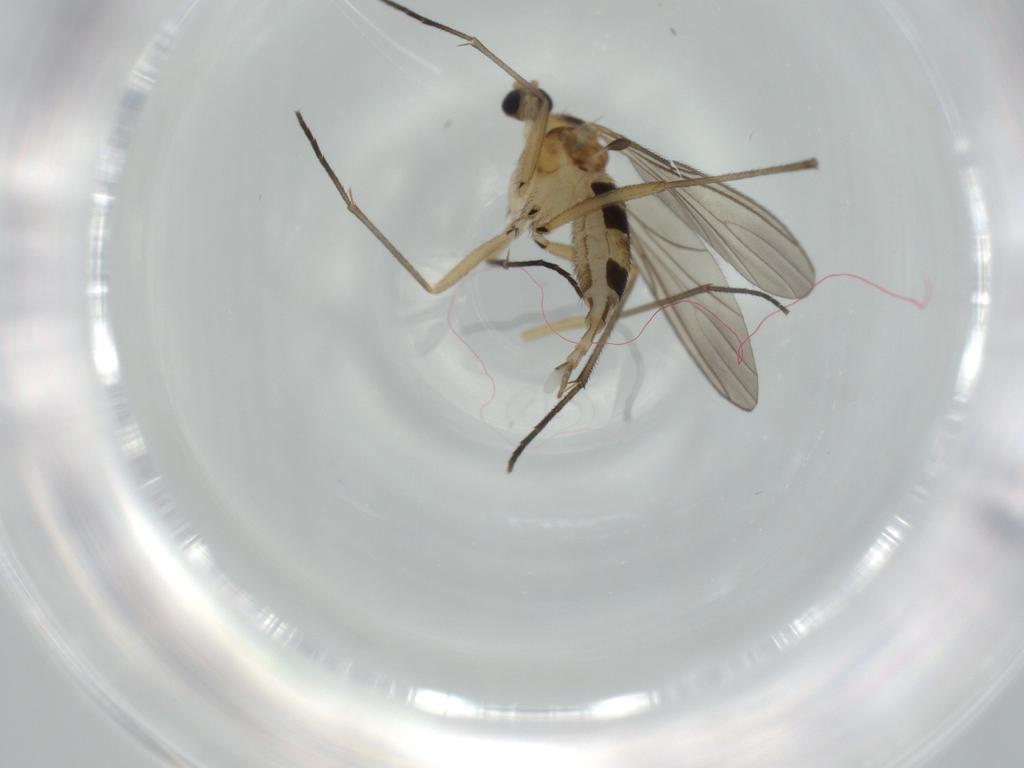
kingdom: Animalia
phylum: Arthropoda
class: Insecta
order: Diptera
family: Sciaridae
